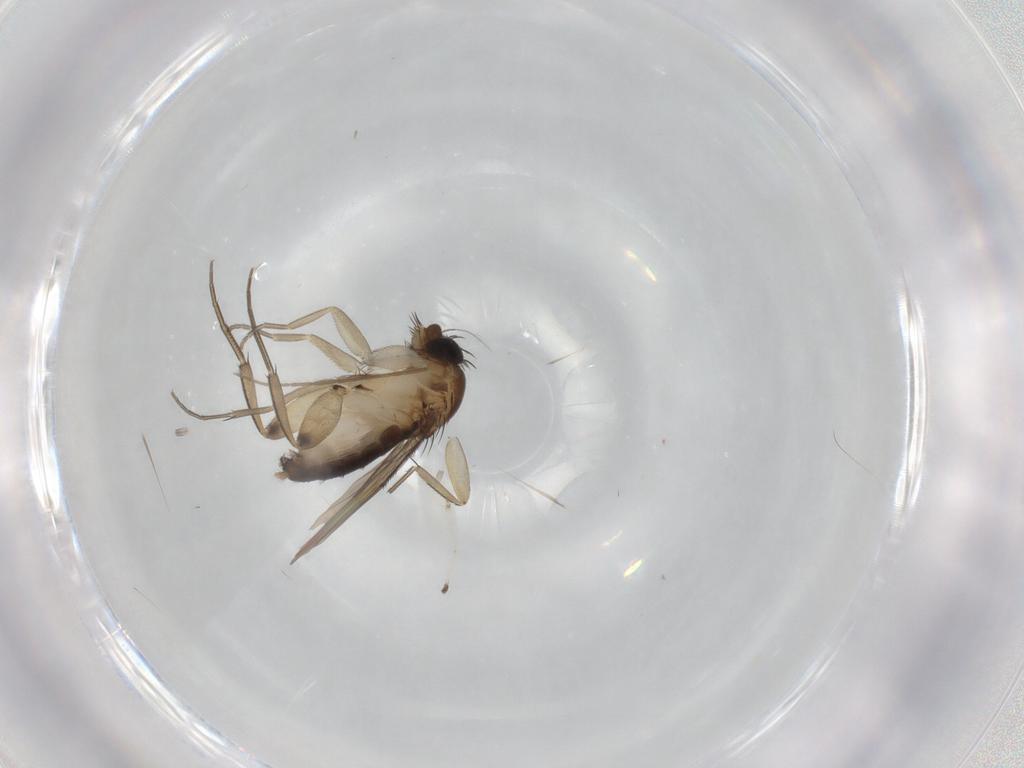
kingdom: Animalia
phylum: Arthropoda
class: Insecta
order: Diptera
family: Phoridae
